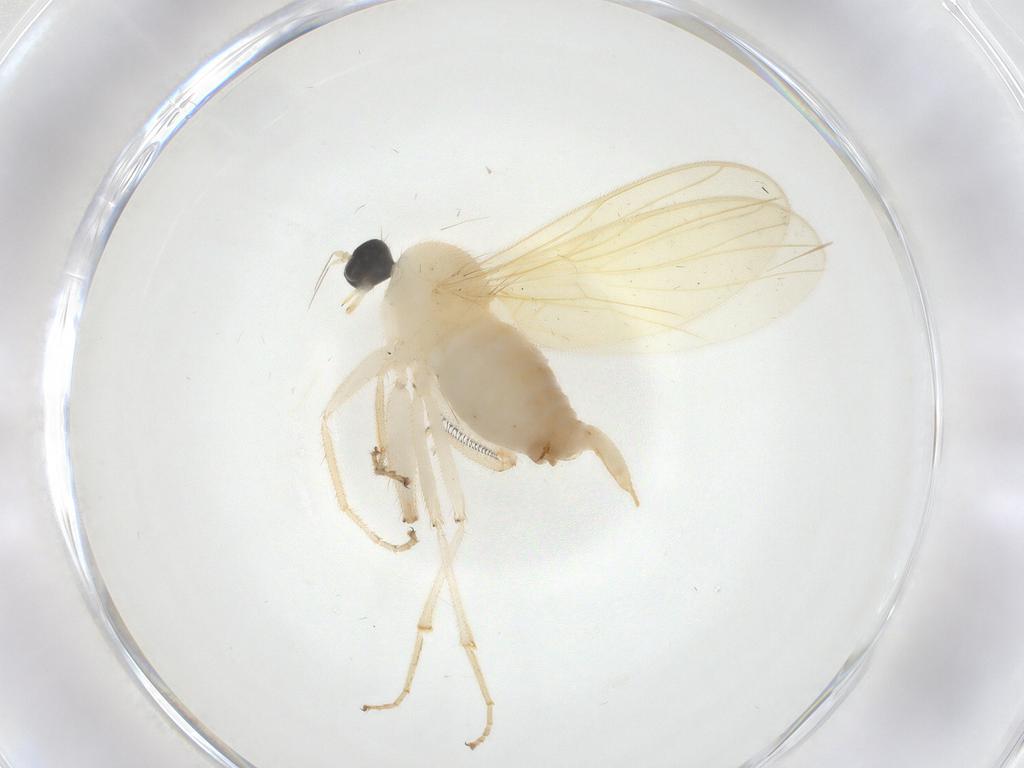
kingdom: Animalia
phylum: Arthropoda
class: Insecta
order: Diptera
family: Hybotidae
